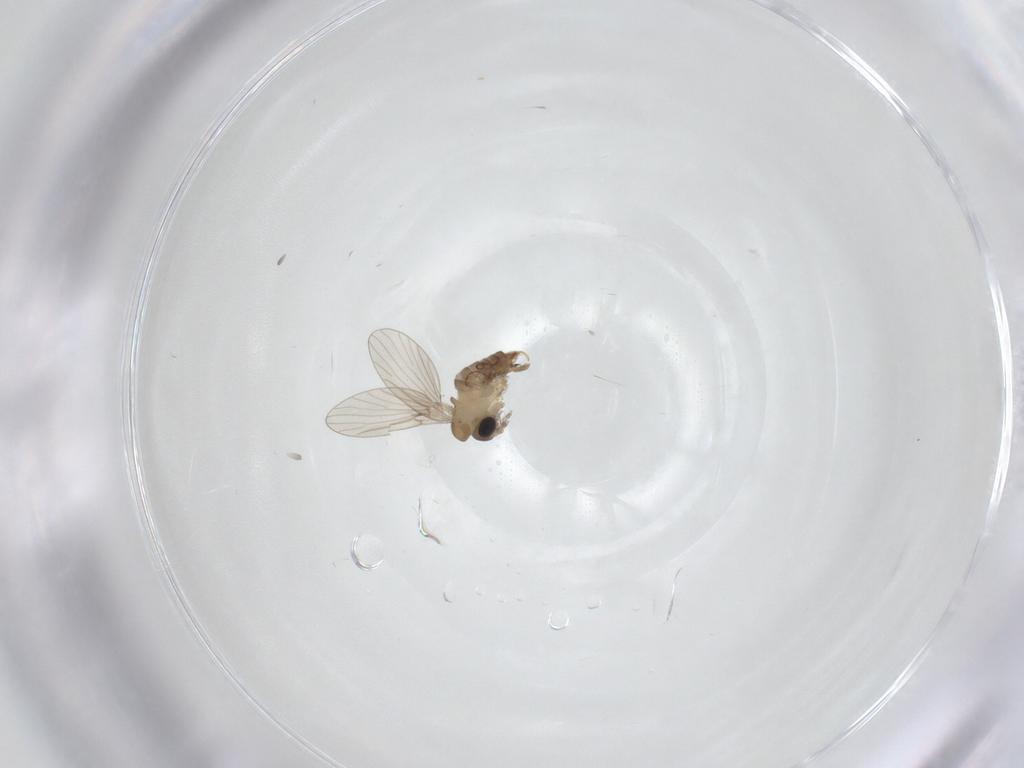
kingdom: Animalia
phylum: Arthropoda
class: Insecta
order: Diptera
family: Psychodidae
